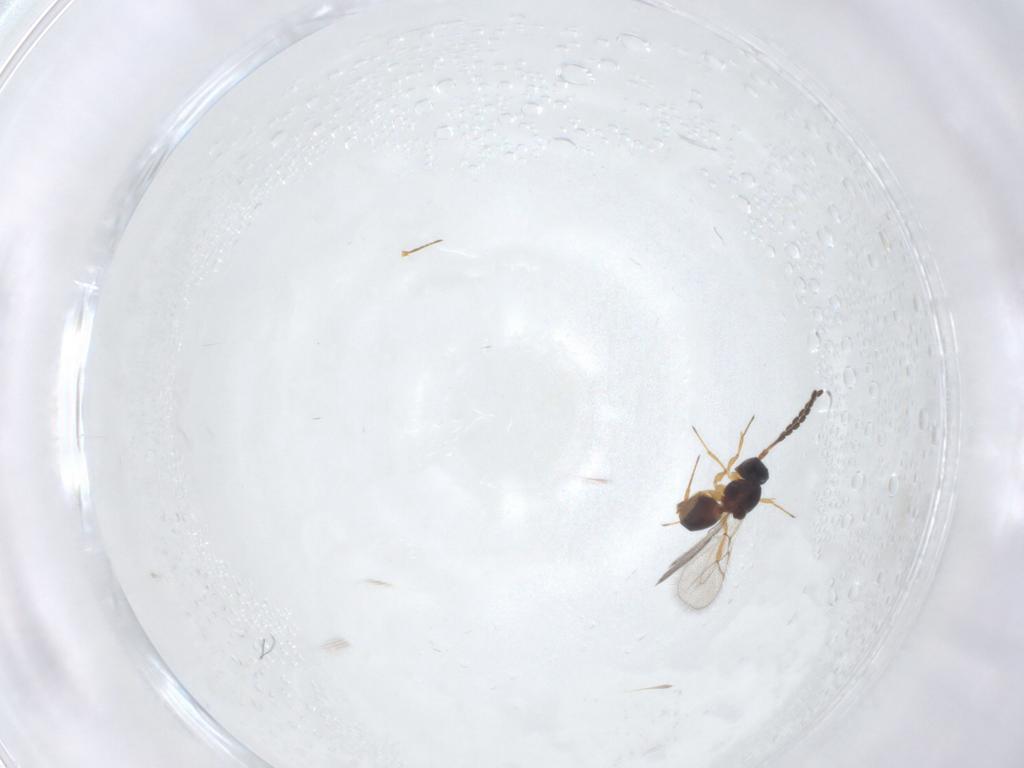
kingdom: Animalia
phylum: Arthropoda
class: Insecta
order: Hymenoptera
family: Figitidae
